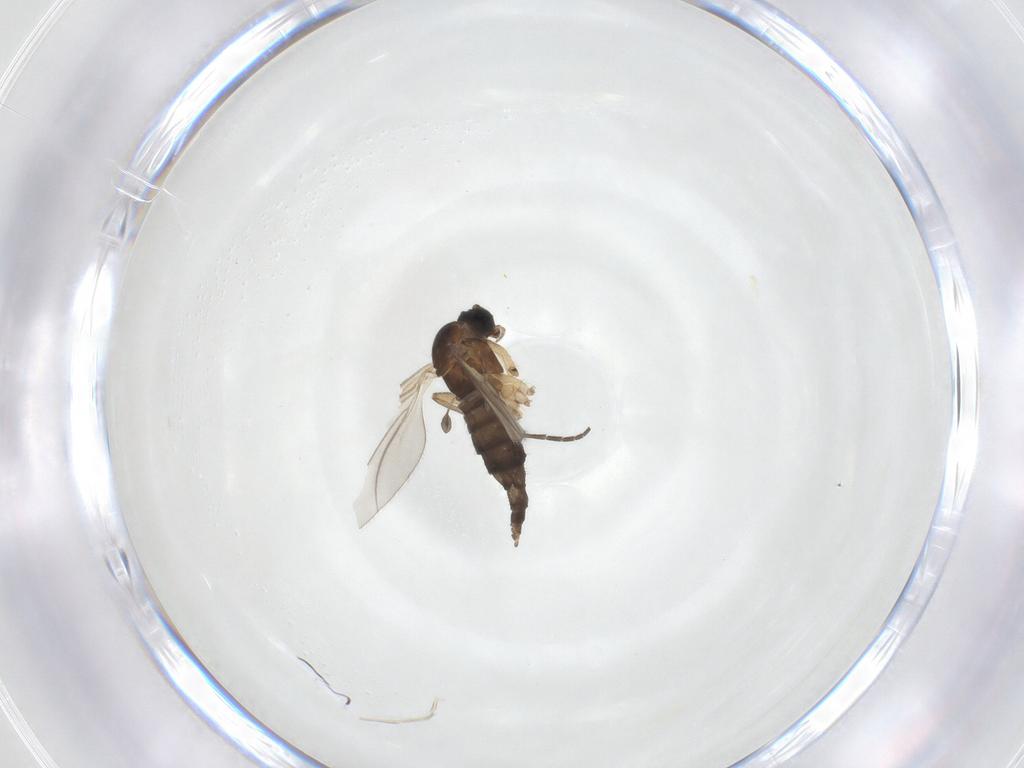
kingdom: Animalia
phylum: Arthropoda
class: Insecta
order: Diptera
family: Sciaridae
